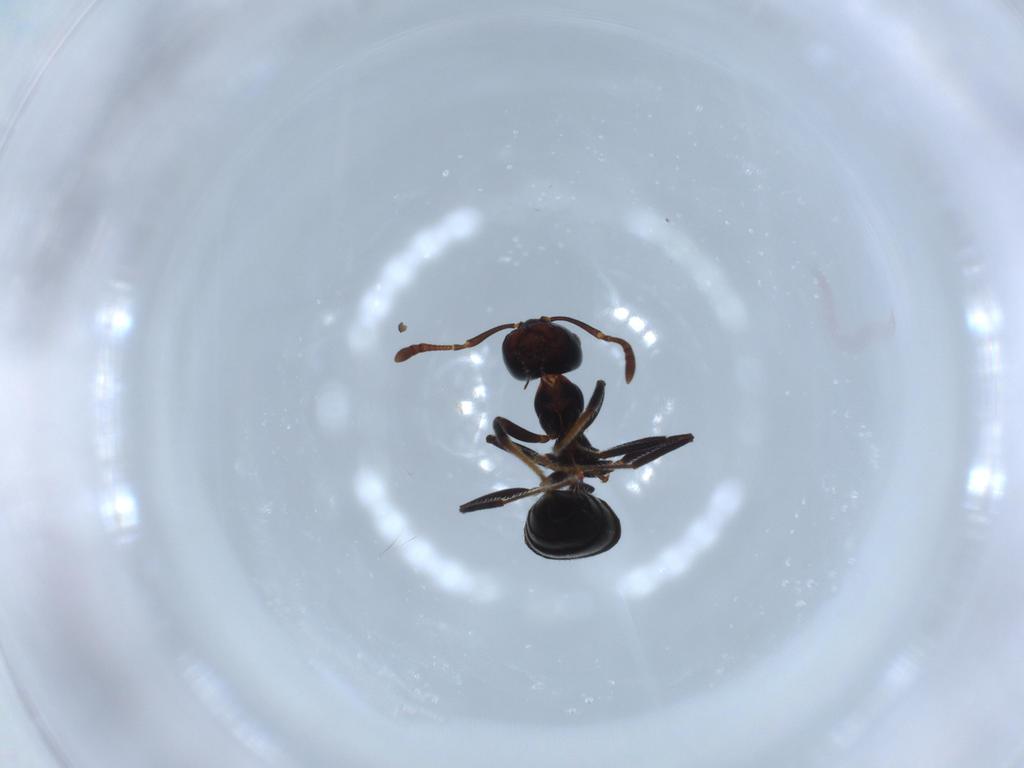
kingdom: Animalia
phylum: Arthropoda
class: Insecta
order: Hymenoptera
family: Formicidae
